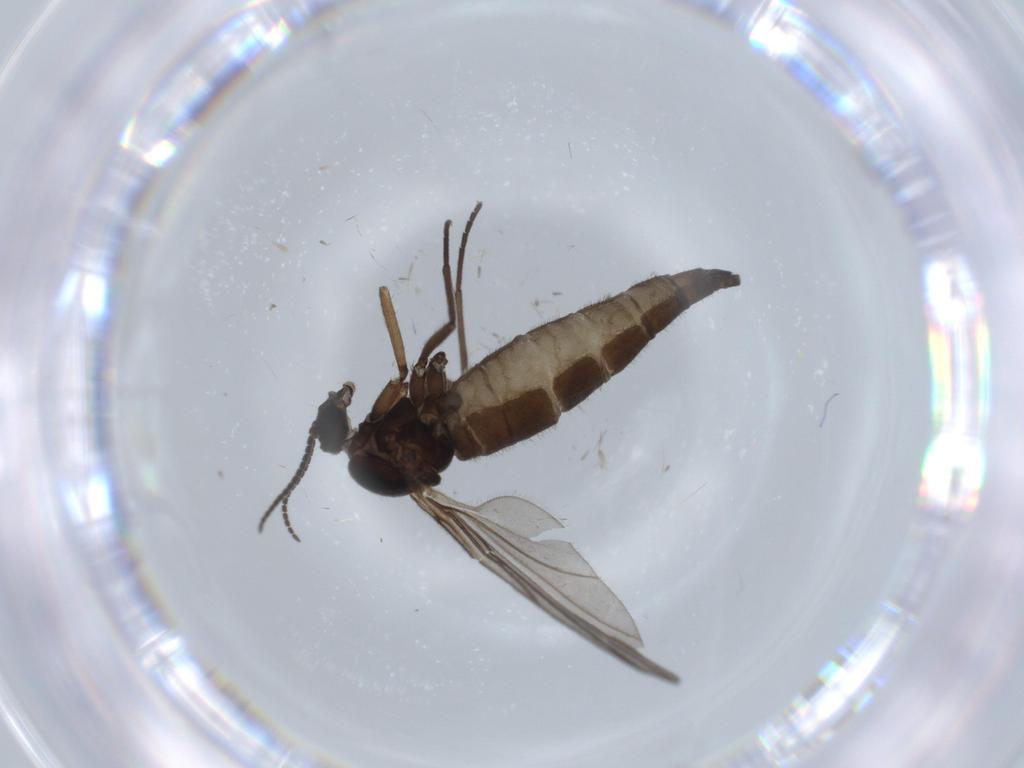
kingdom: Animalia
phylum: Arthropoda
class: Insecta
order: Diptera
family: Sciaridae
